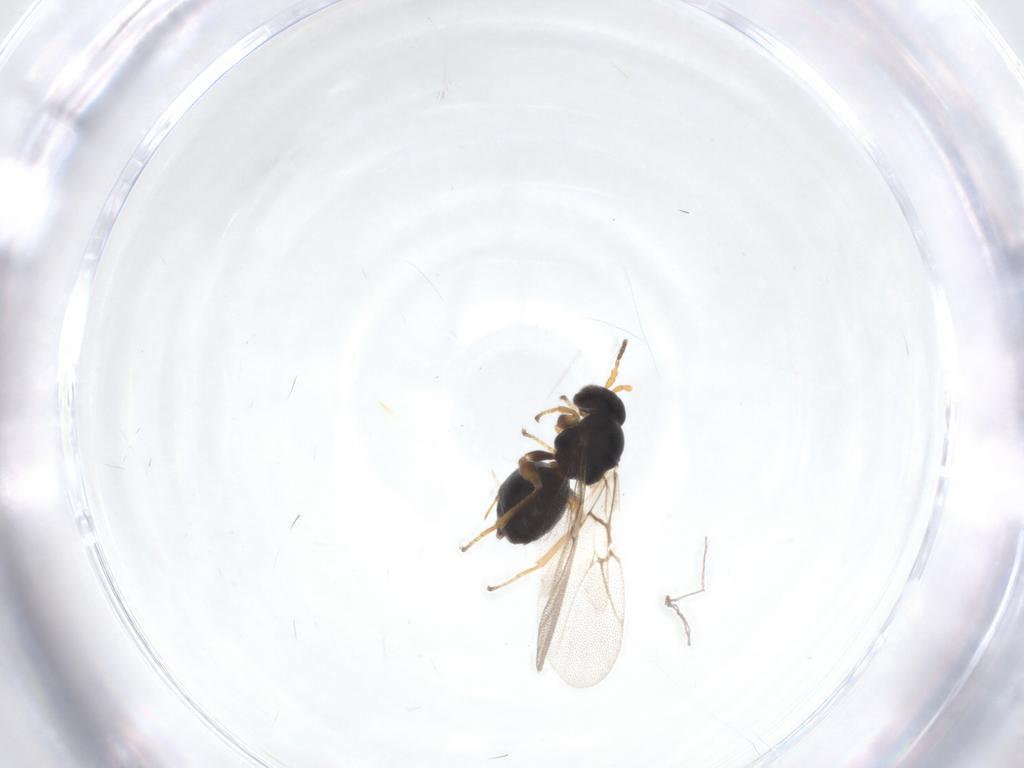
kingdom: Animalia
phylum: Arthropoda
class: Insecta
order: Hymenoptera
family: Cynipidae
